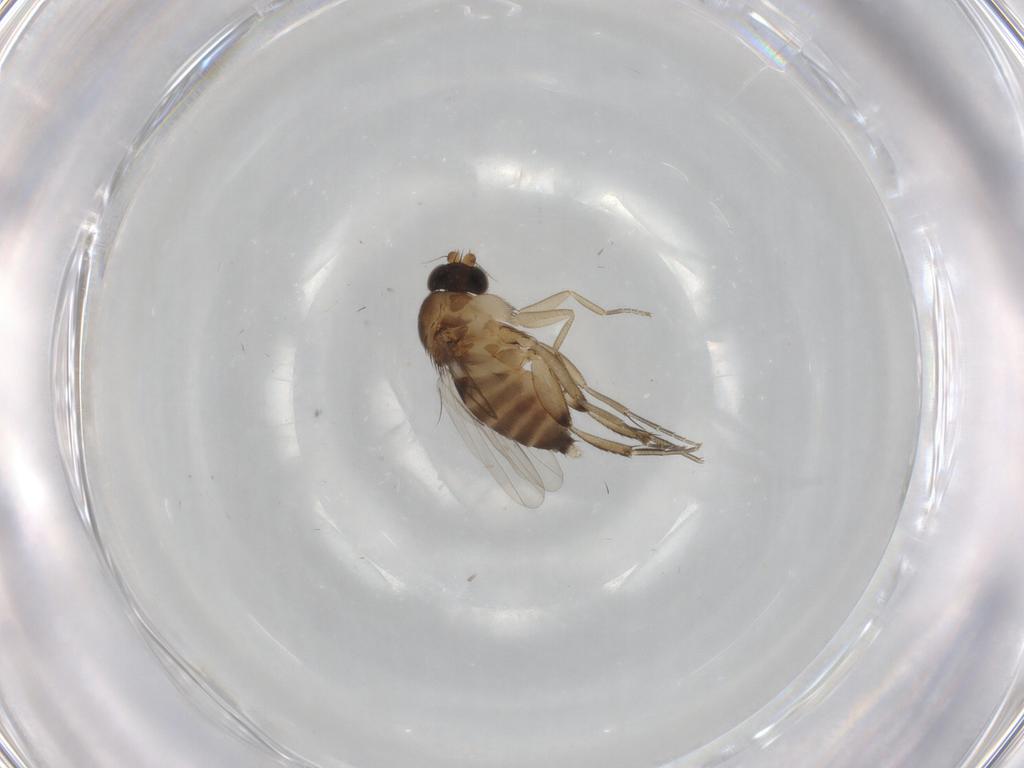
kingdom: Animalia
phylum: Arthropoda
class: Insecta
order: Diptera
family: Phoridae
